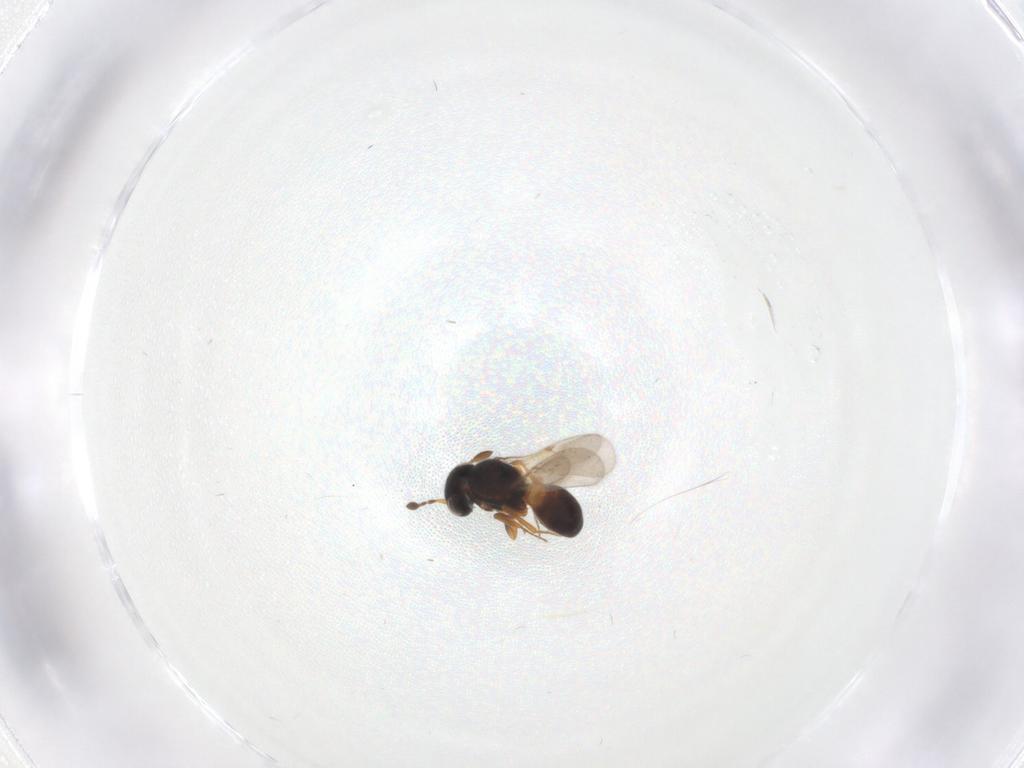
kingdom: Animalia
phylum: Arthropoda
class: Insecta
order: Hymenoptera
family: Scelionidae
